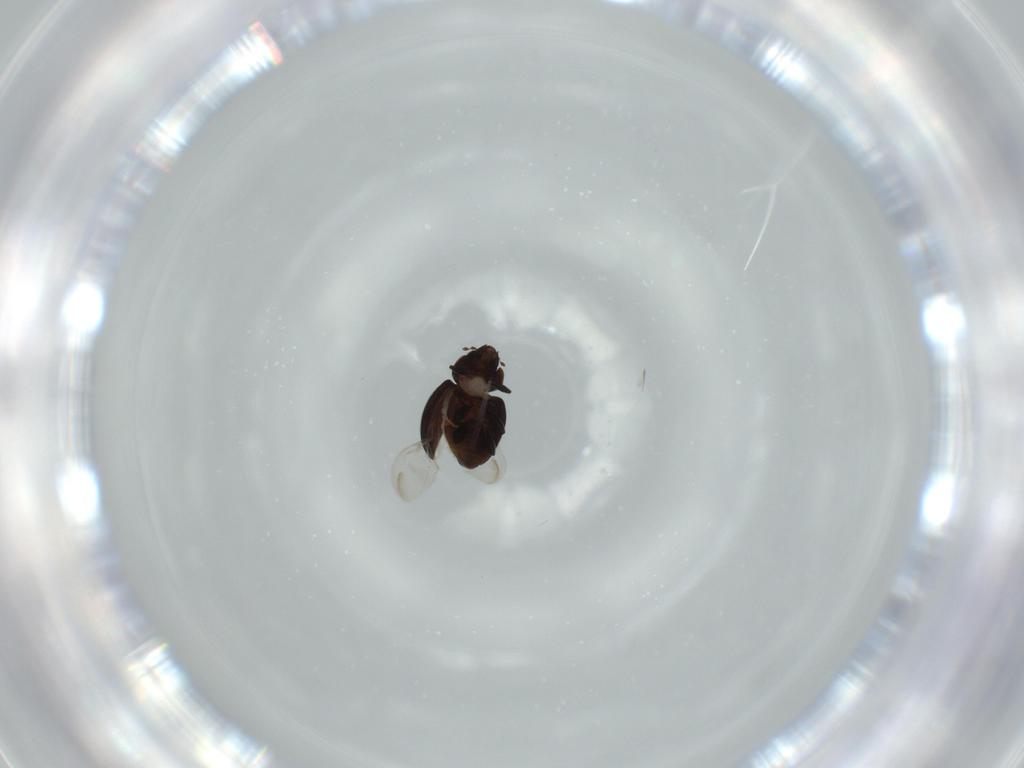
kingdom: Animalia
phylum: Arthropoda
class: Insecta
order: Coleoptera
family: Coccinellidae
